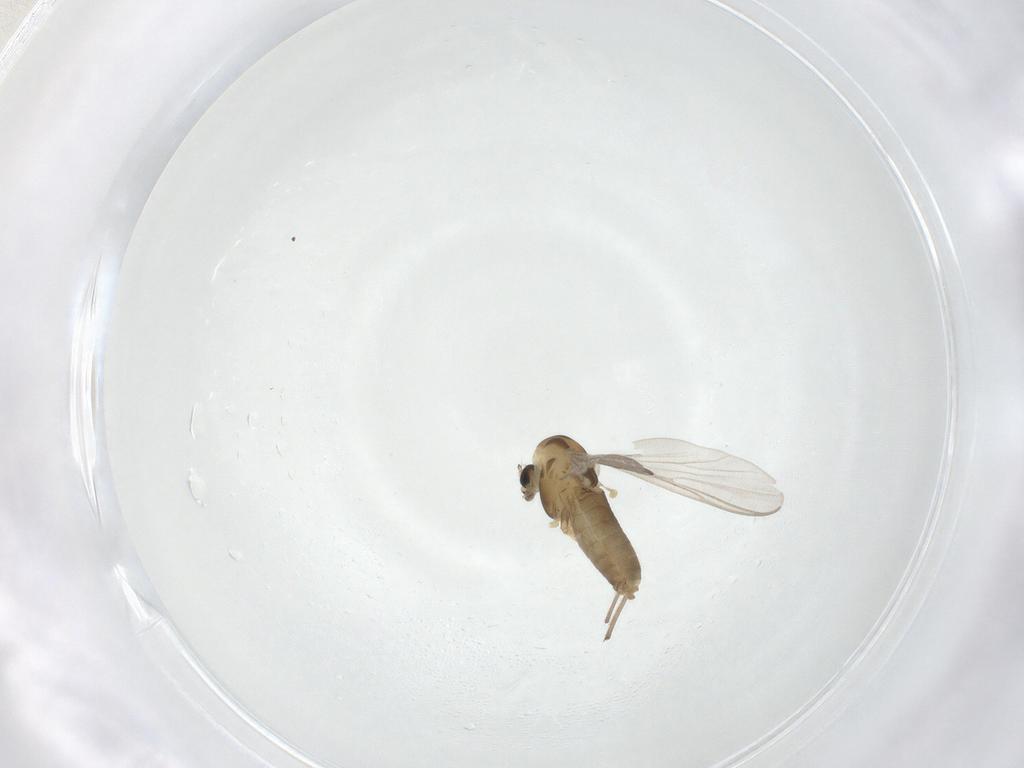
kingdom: Animalia
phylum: Arthropoda
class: Insecta
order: Diptera
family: Chironomidae
